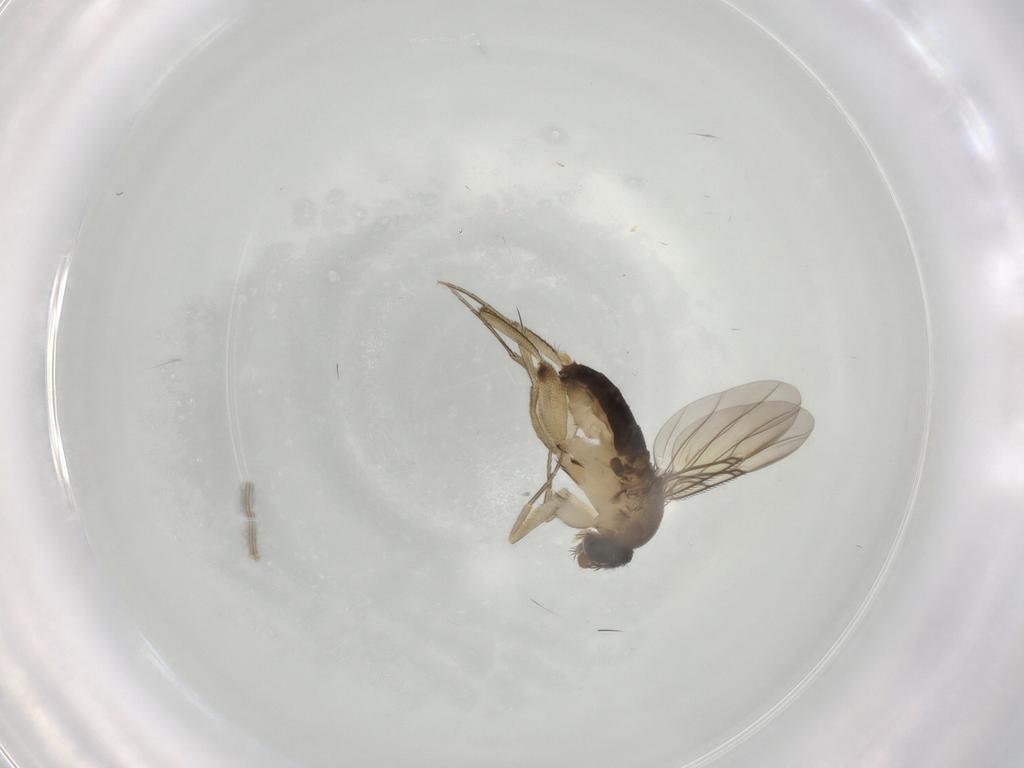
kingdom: Animalia
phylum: Arthropoda
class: Insecta
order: Diptera
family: Phoridae
